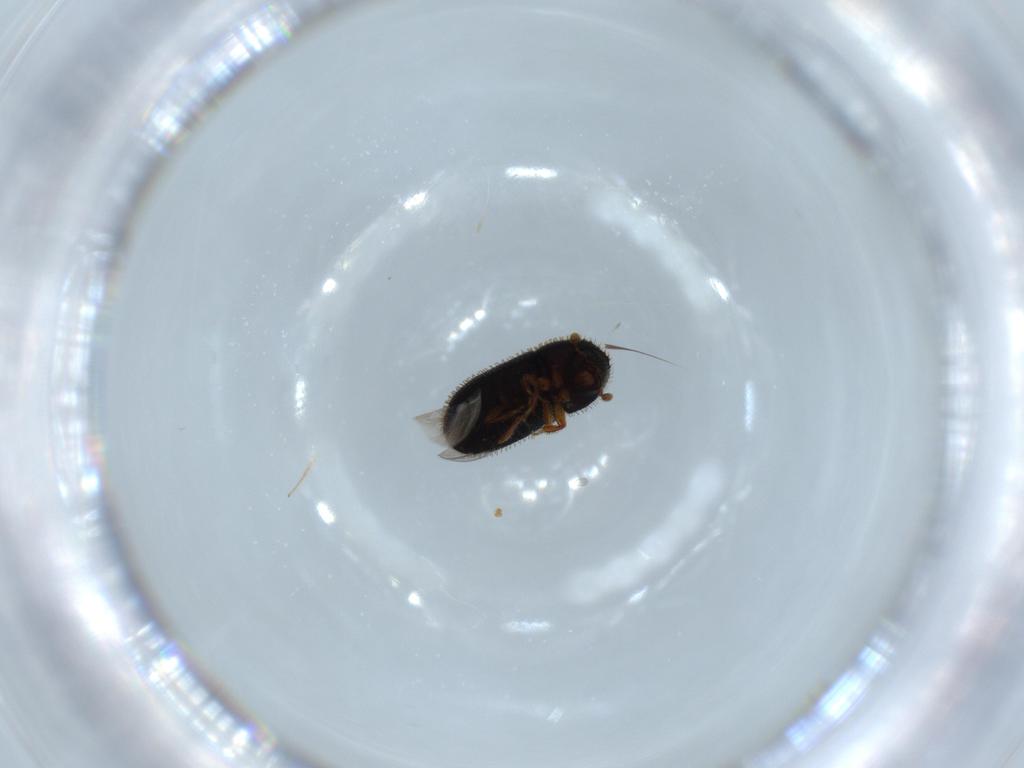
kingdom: Animalia
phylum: Arthropoda
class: Insecta
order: Coleoptera
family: Curculionidae
